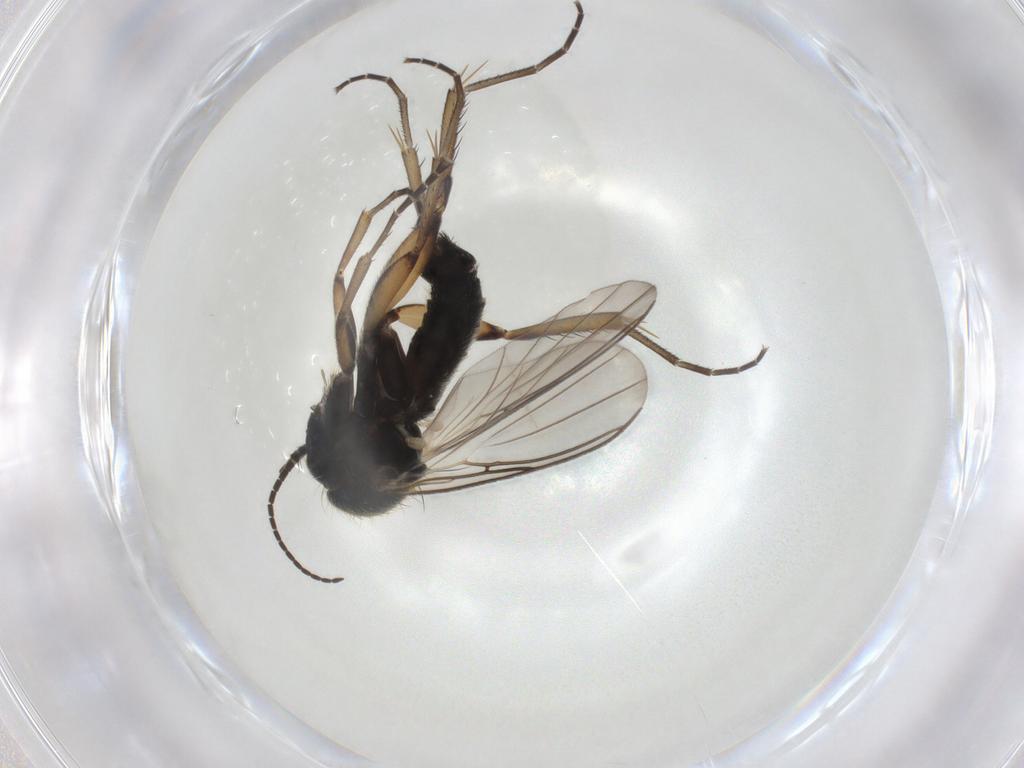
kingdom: Animalia
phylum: Arthropoda
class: Insecta
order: Diptera
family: Mycetophilidae
